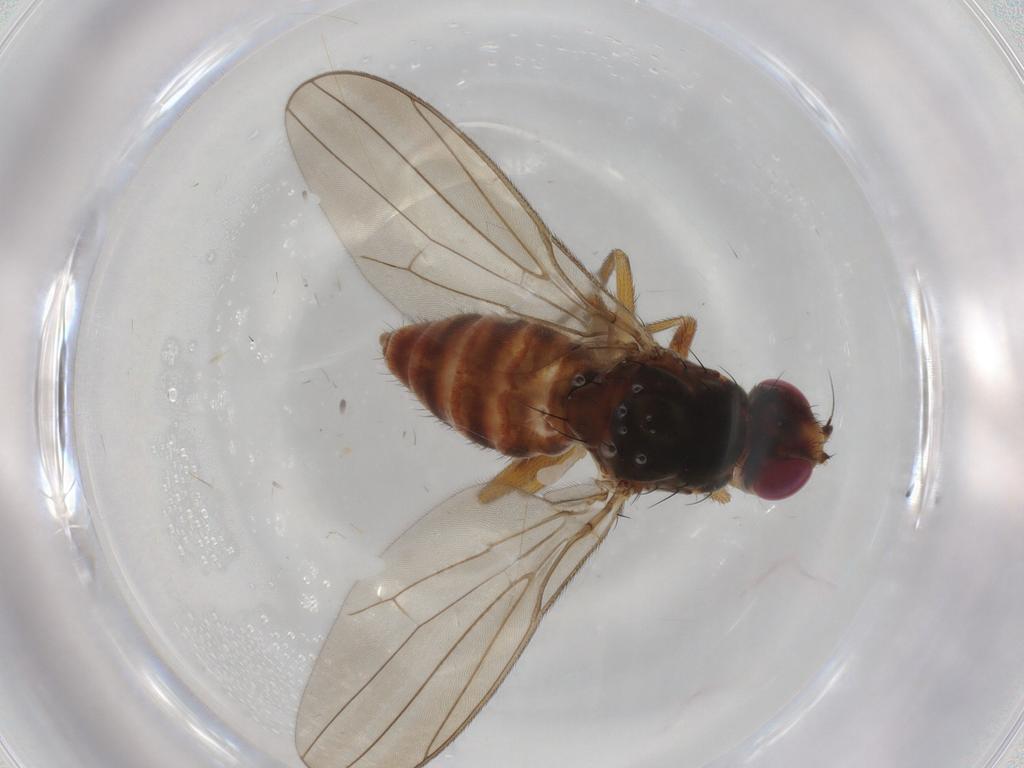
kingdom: Animalia
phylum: Arthropoda
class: Insecta
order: Diptera
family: Chloropidae
